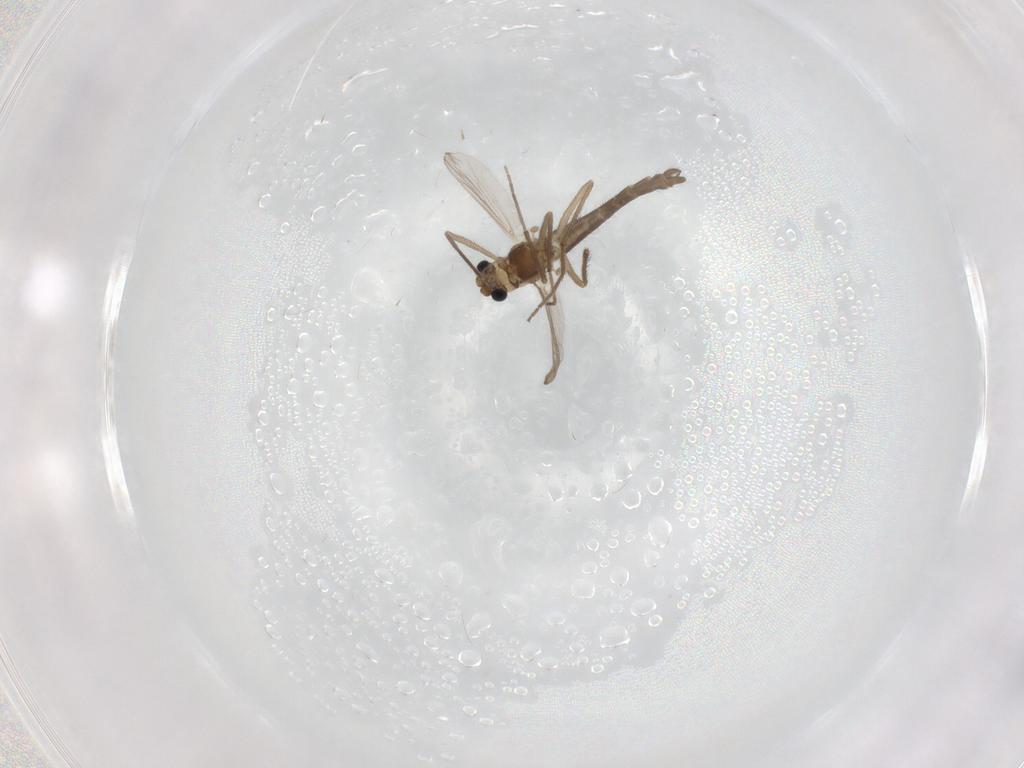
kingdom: Animalia
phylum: Arthropoda
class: Insecta
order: Diptera
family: Chironomidae
